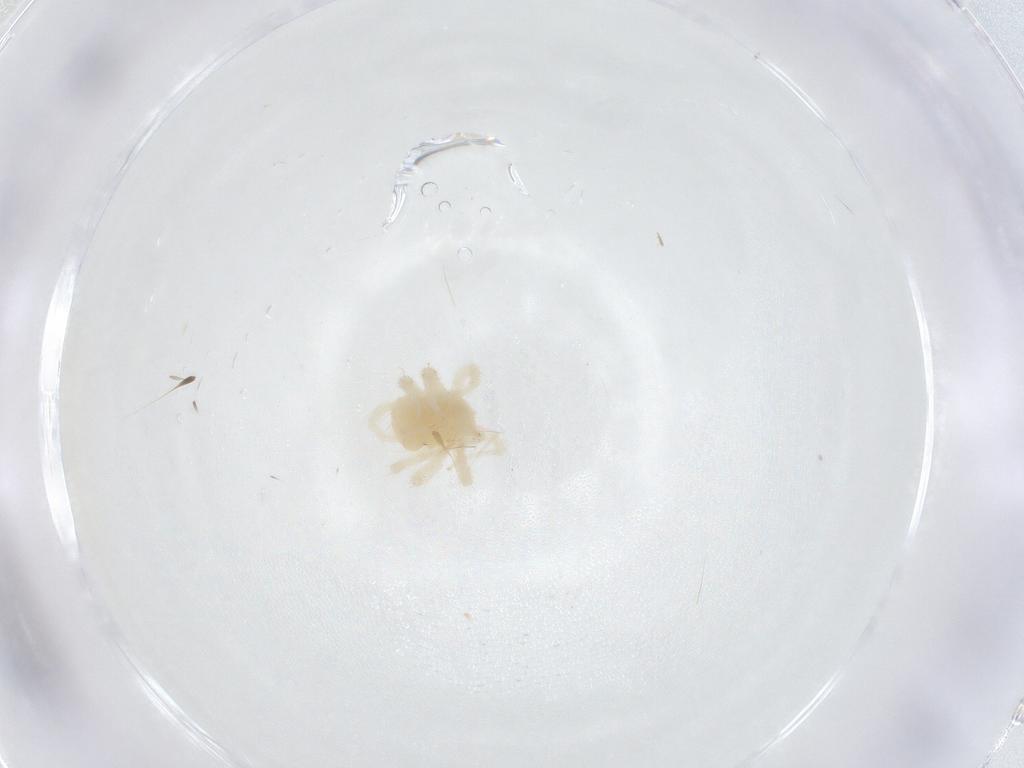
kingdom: Animalia
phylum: Arthropoda
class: Arachnida
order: Trombidiformes
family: Anystidae
